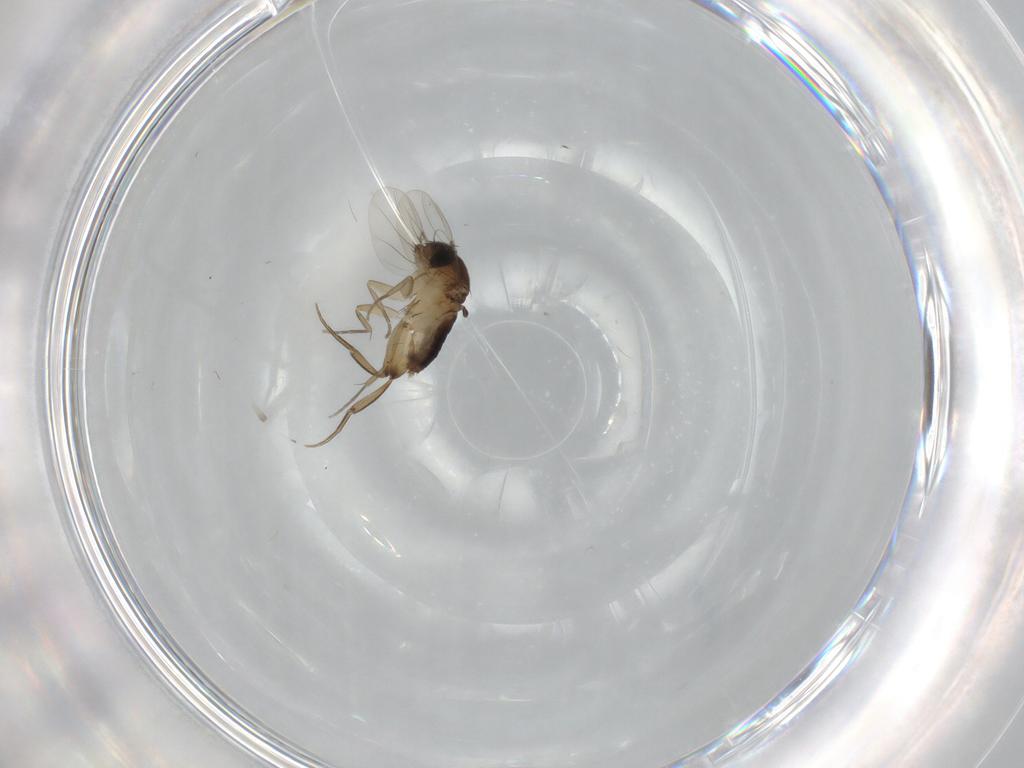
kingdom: Animalia
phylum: Arthropoda
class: Insecta
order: Diptera
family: Phoridae
